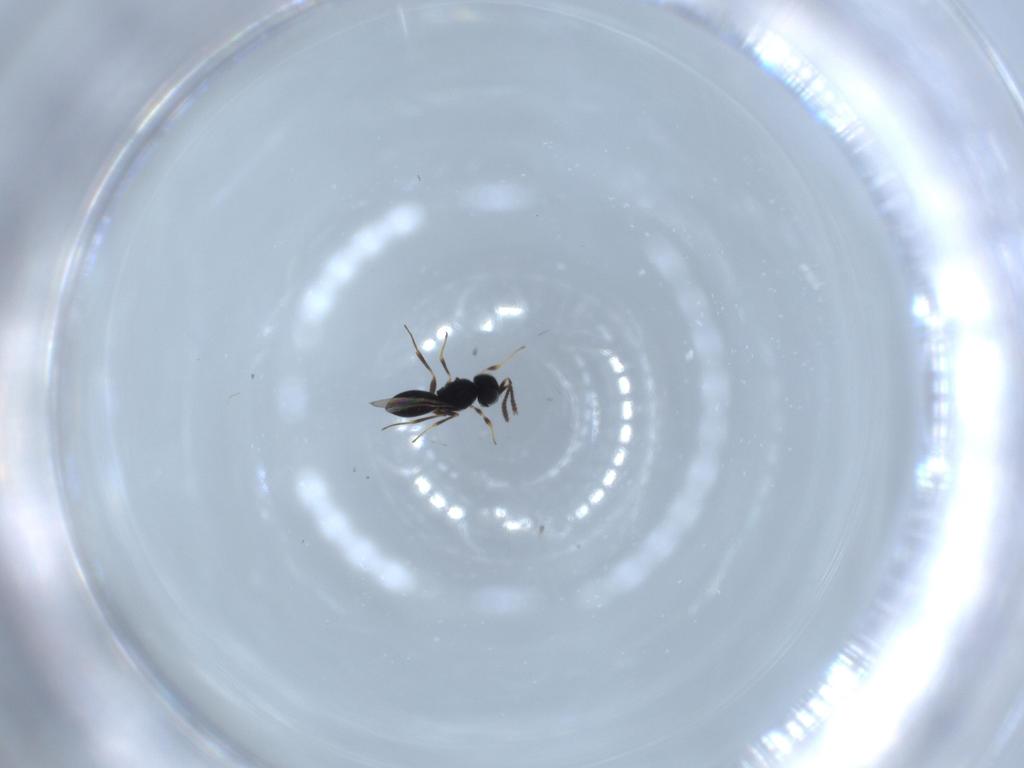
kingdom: Animalia
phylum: Arthropoda
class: Insecta
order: Hymenoptera
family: Scelionidae
